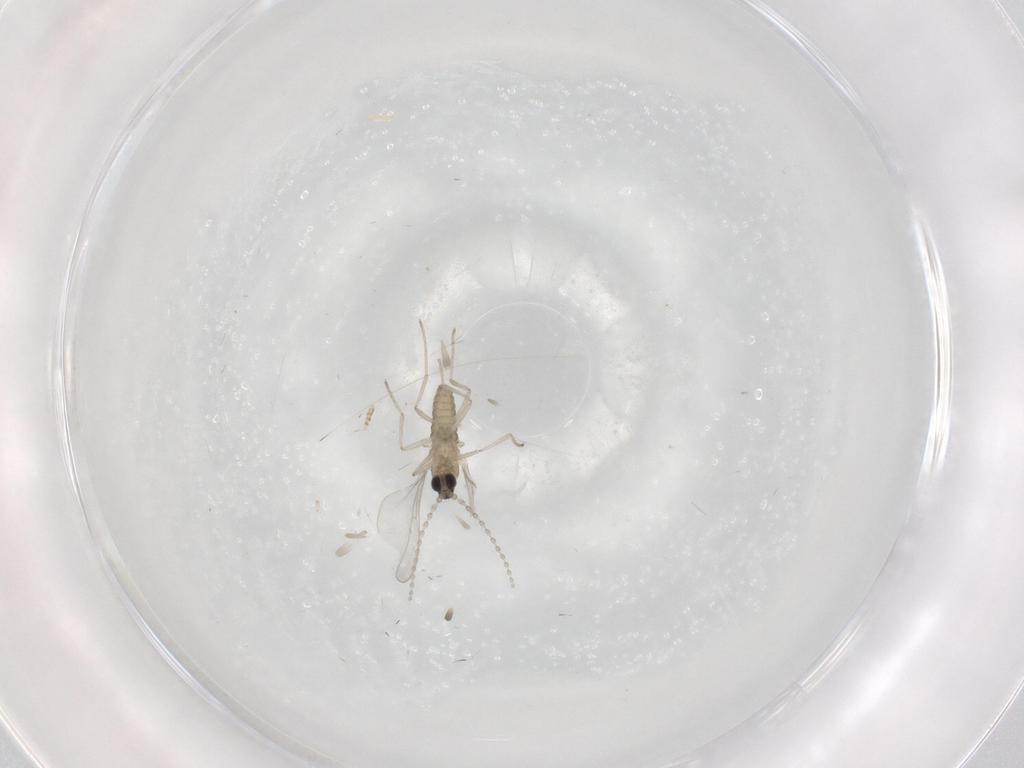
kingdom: Animalia
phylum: Arthropoda
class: Insecta
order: Diptera
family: Cecidomyiidae
